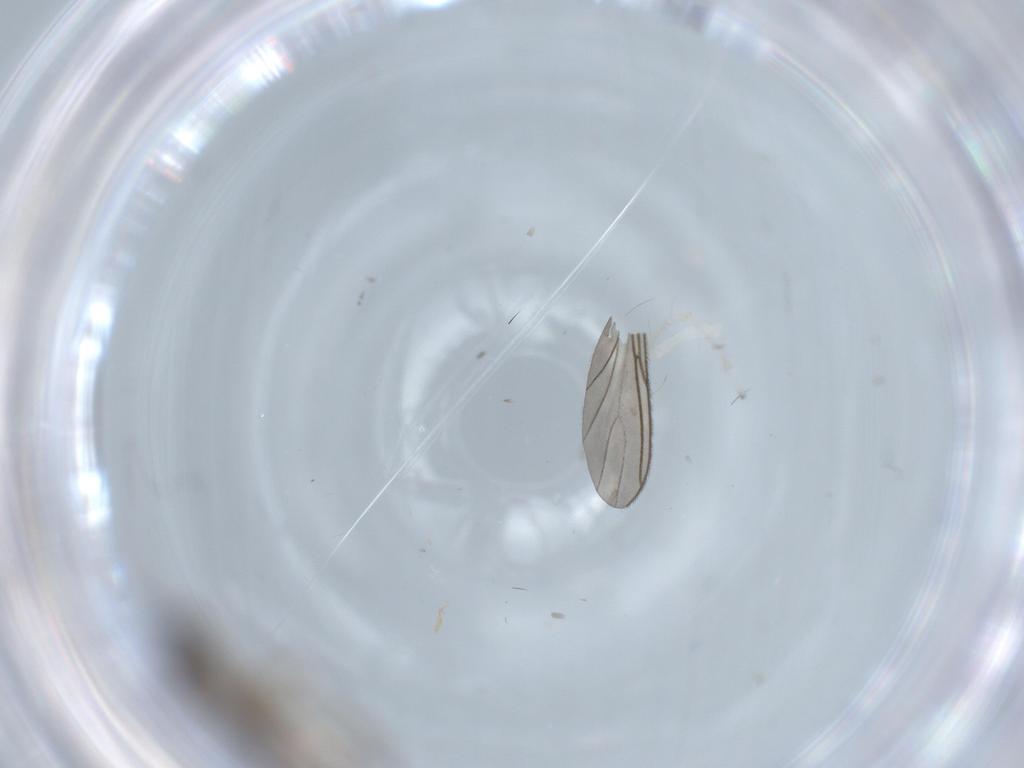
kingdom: Animalia
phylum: Arthropoda
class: Arachnida
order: Araneae
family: Anyphaenidae
